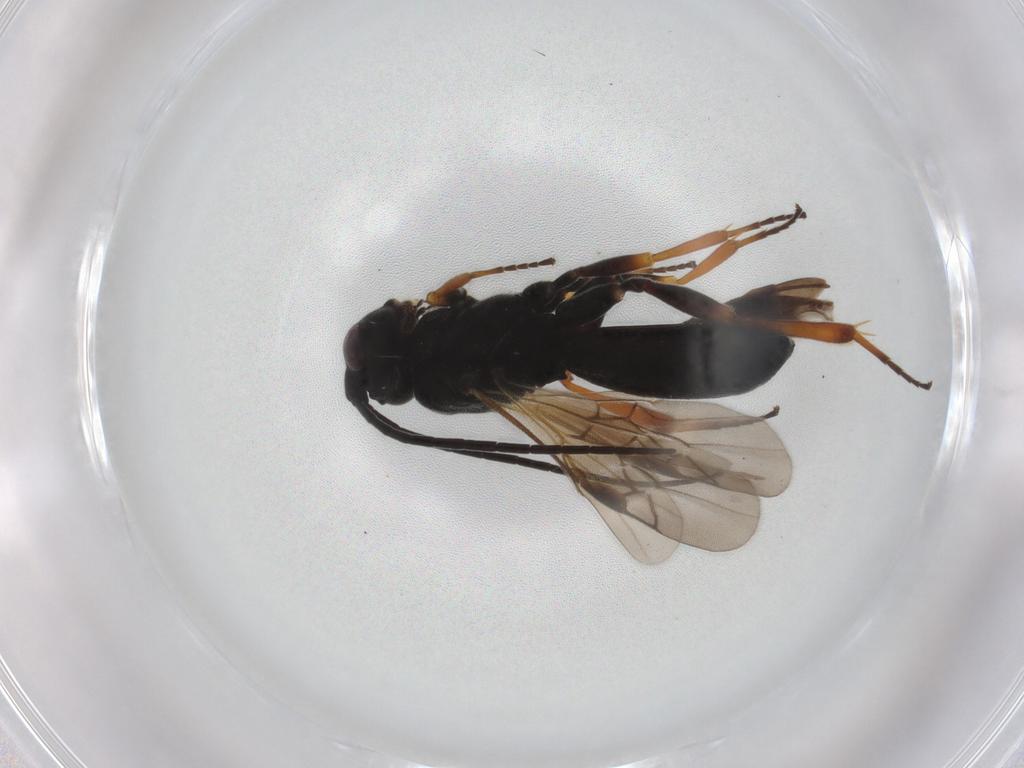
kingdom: Animalia
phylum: Arthropoda
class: Insecta
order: Hymenoptera
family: Braconidae
